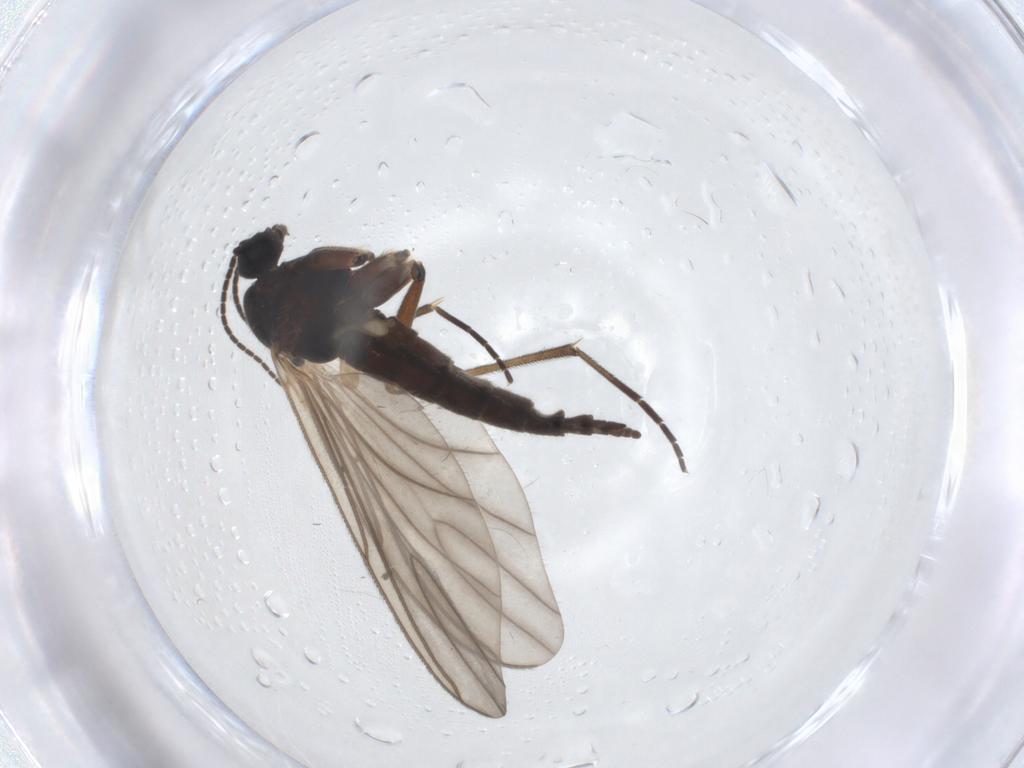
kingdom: Animalia
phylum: Arthropoda
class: Insecta
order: Diptera
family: Sciaridae
